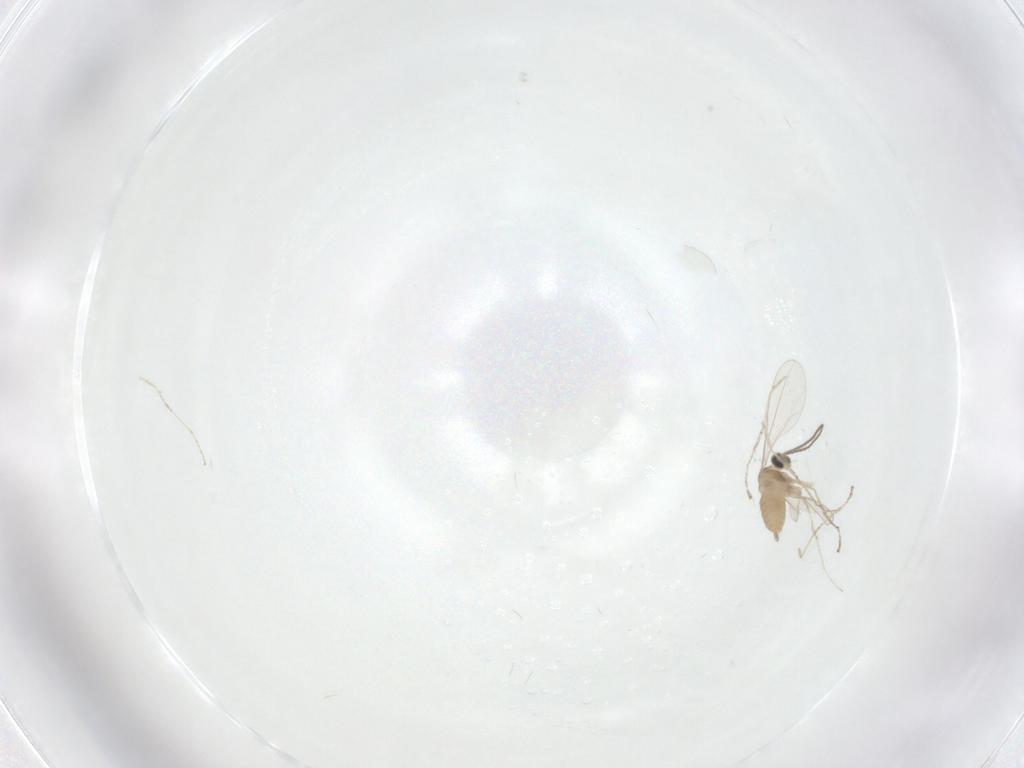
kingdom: Animalia
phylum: Arthropoda
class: Insecta
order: Diptera
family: Cecidomyiidae
